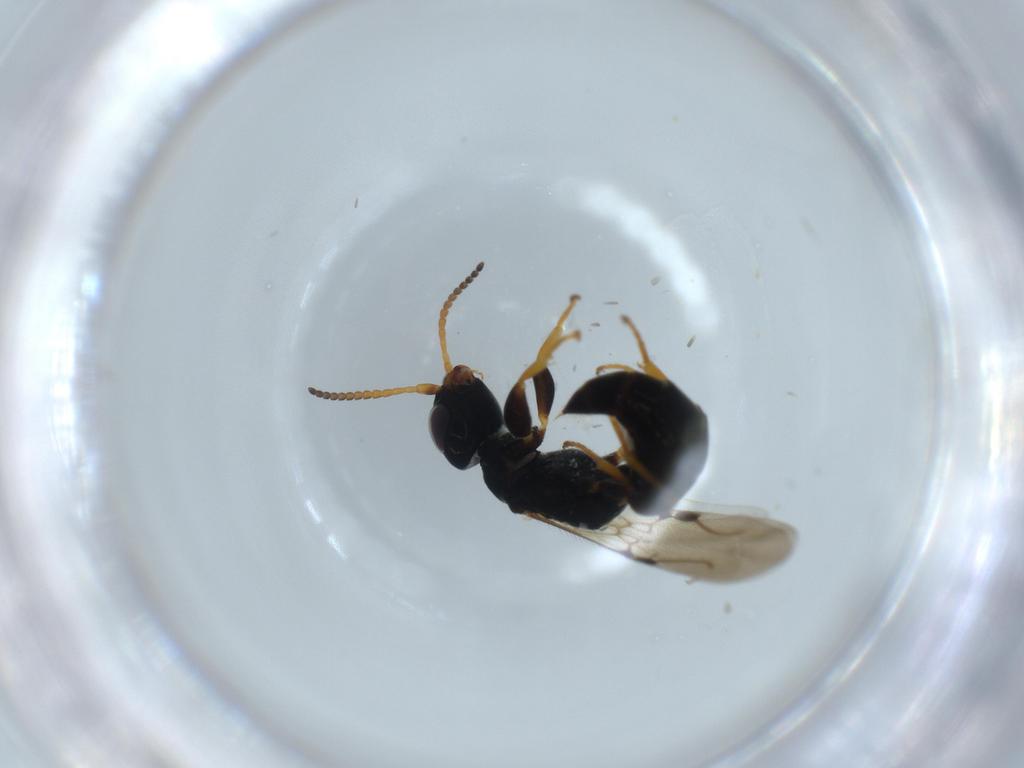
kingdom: Animalia
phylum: Arthropoda
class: Insecta
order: Hymenoptera
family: Bethylidae
